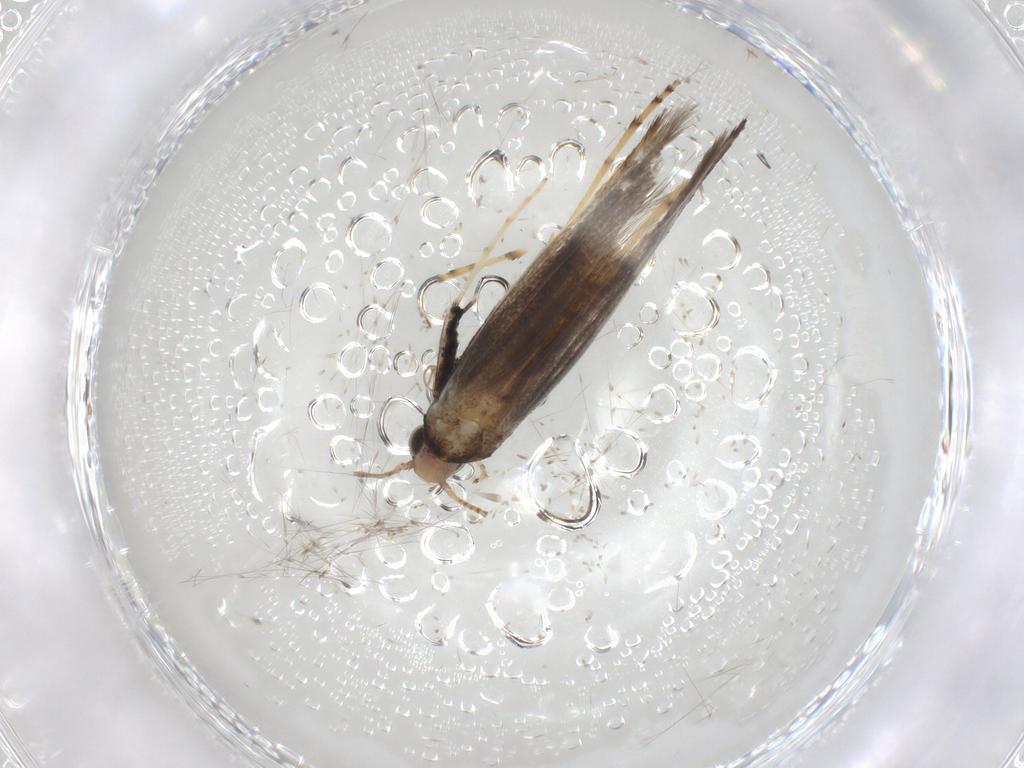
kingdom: Animalia
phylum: Arthropoda
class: Insecta
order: Lepidoptera
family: Gracillariidae
